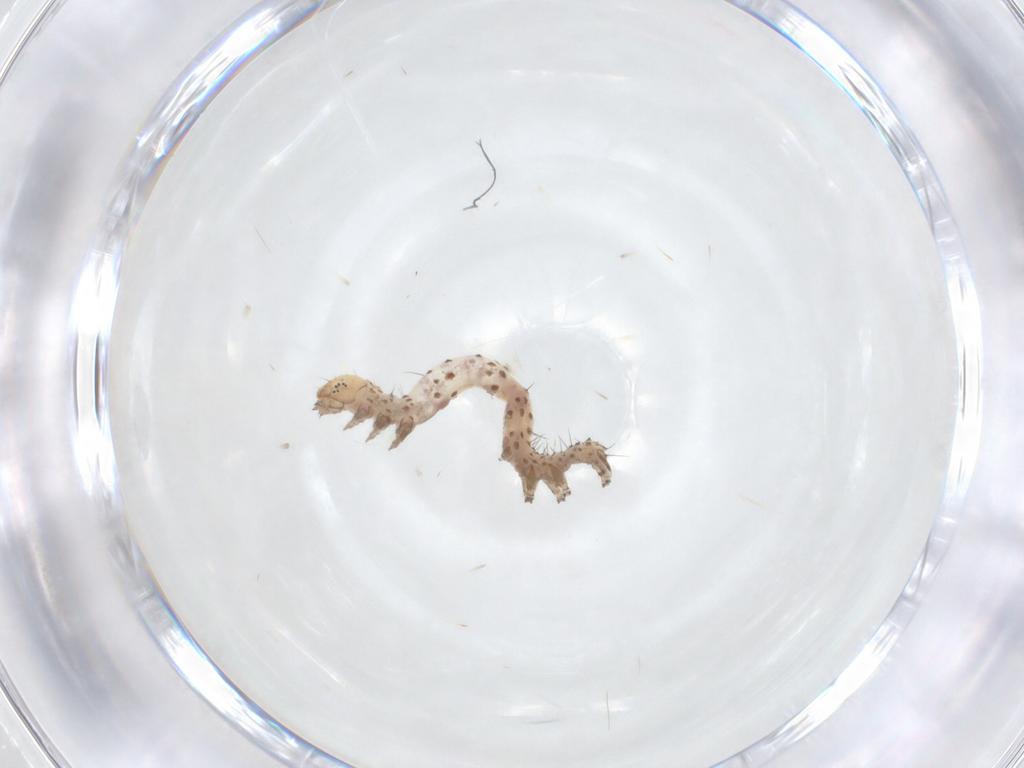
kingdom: Animalia
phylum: Arthropoda
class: Insecta
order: Lepidoptera
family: Erebidae
